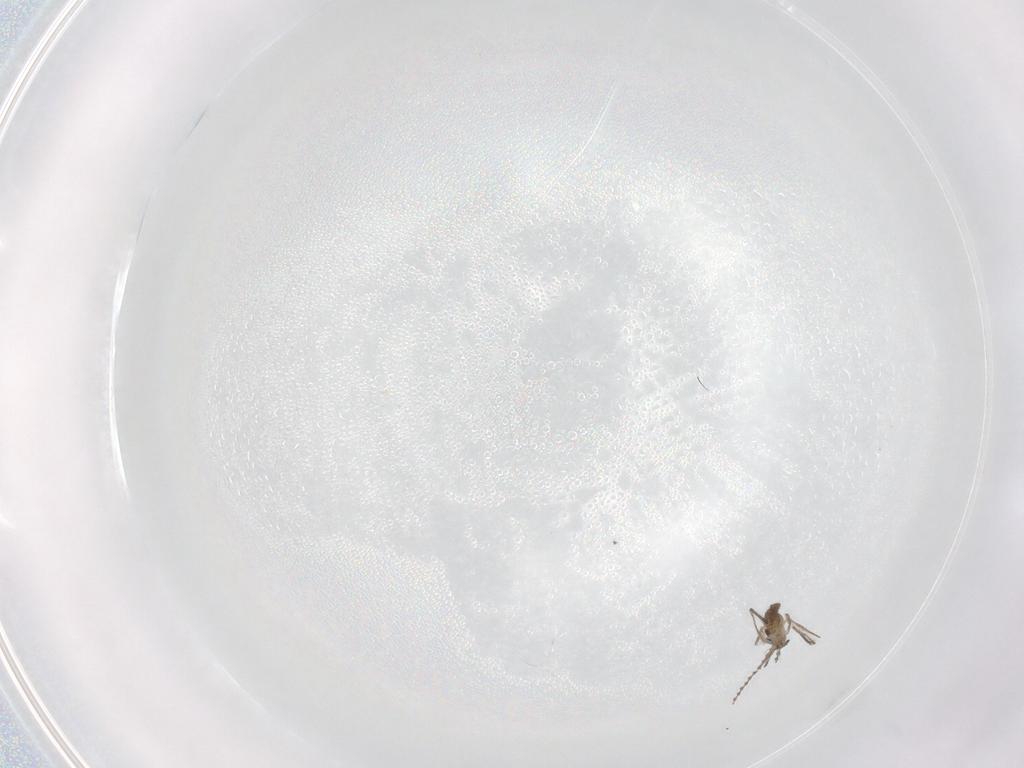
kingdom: Animalia
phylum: Arthropoda
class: Insecta
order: Diptera
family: Cecidomyiidae
